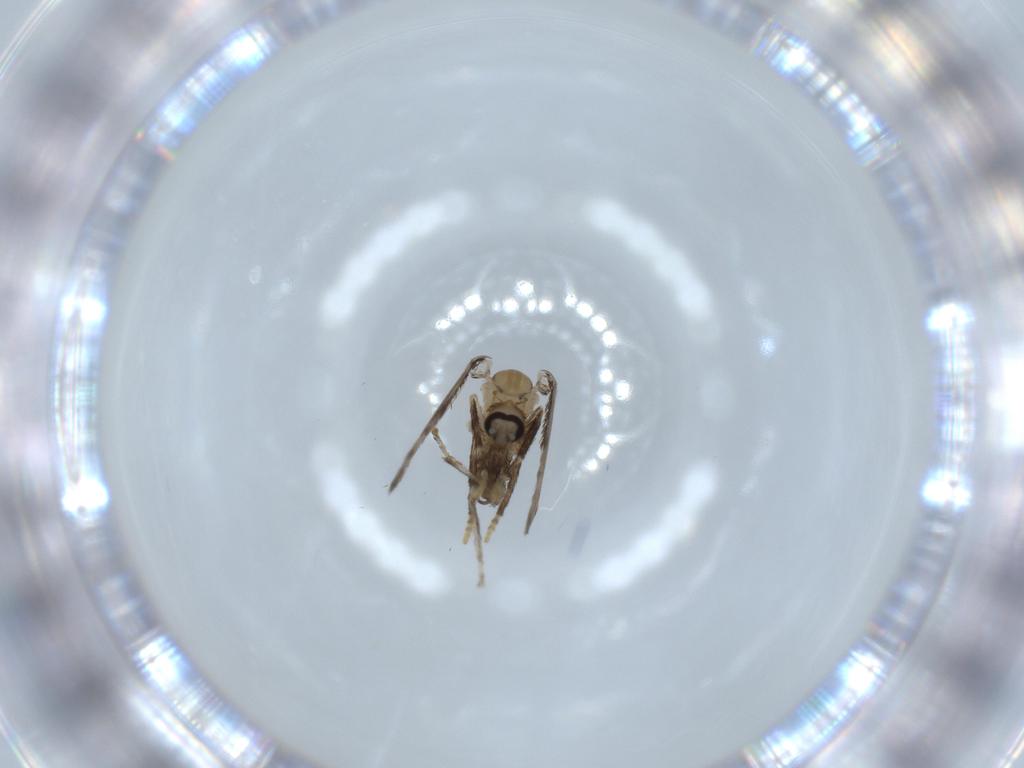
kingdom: Animalia
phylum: Arthropoda
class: Insecta
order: Diptera
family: Psychodidae
